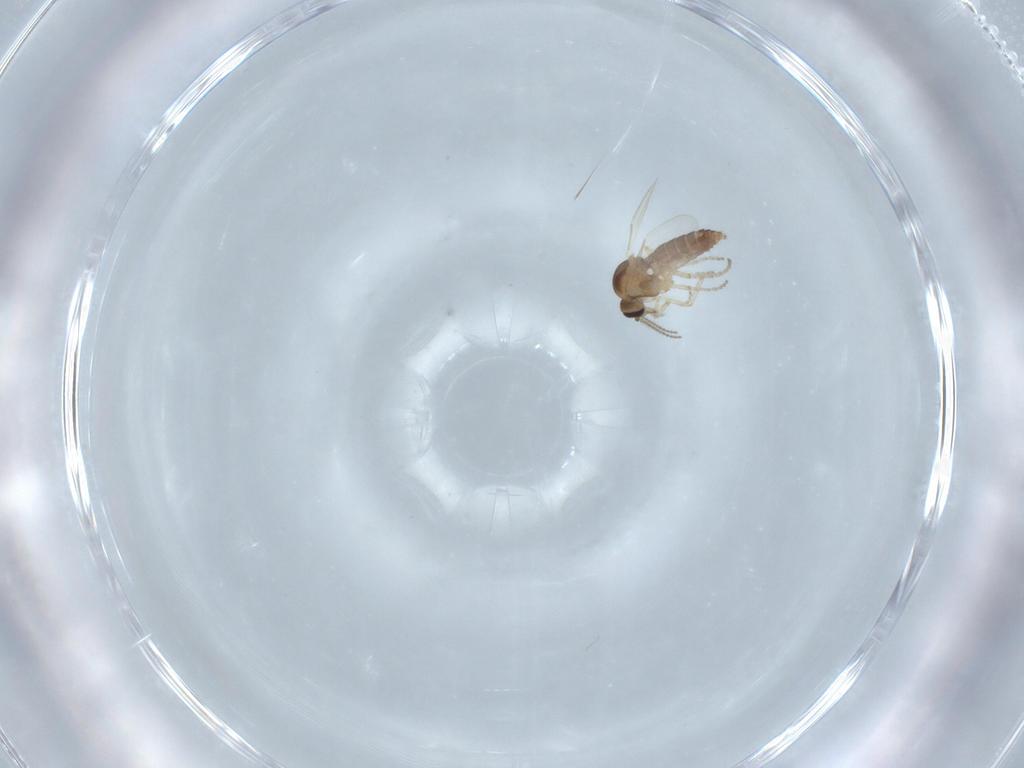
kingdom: Animalia
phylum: Arthropoda
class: Insecta
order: Diptera
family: Ceratopogonidae
